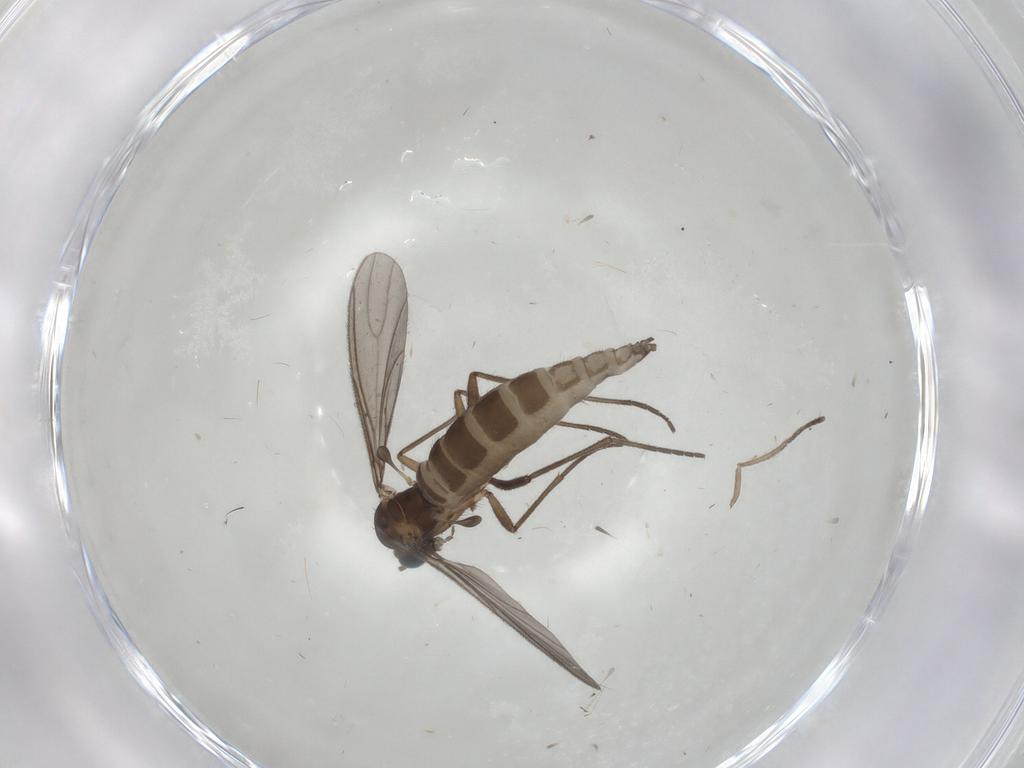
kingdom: Animalia
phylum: Arthropoda
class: Insecta
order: Diptera
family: Sciaridae
